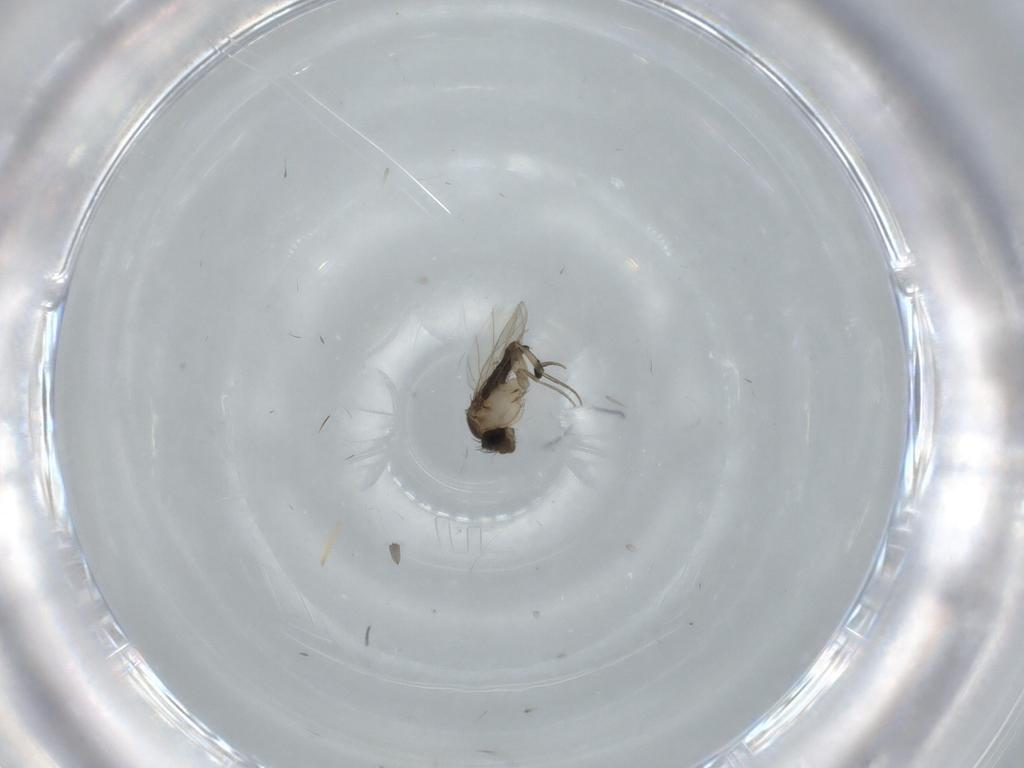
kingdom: Animalia
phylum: Arthropoda
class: Insecta
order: Diptera
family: Phoridae
